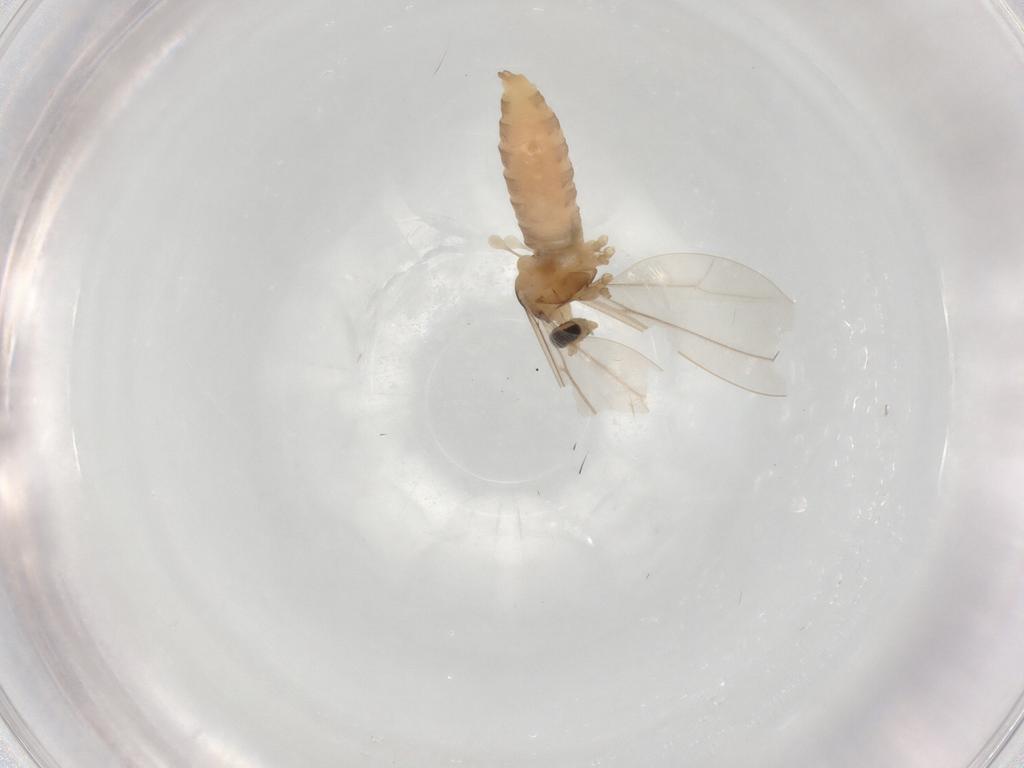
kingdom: Animalia
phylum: Arthropoda
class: Insecta
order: Diptera
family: Cecidomyiidae
